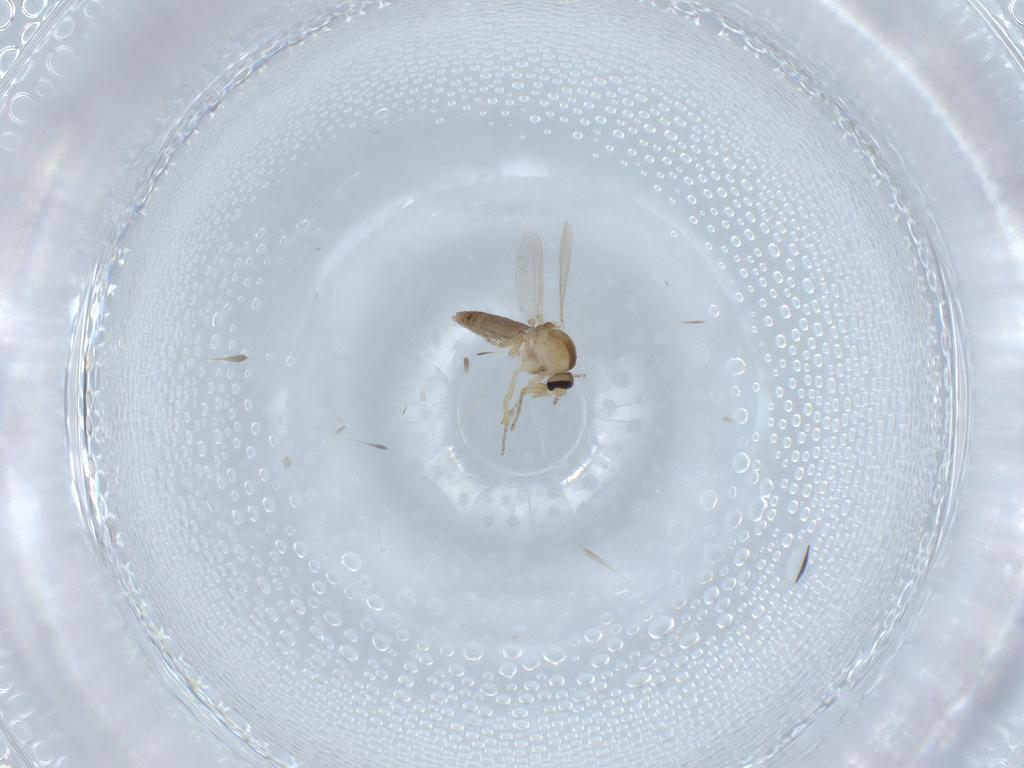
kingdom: Animalia
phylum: Arthropoda
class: Insecta
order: Diptera
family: Ceratopogonidae
